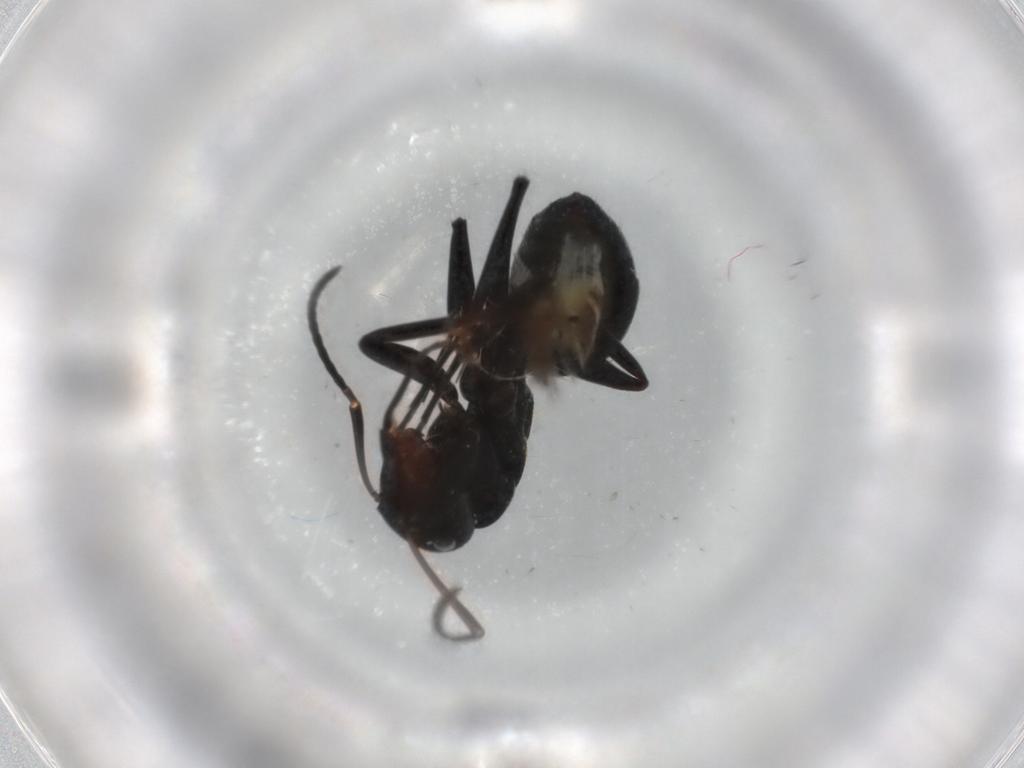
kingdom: Animalia
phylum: Arthropoda
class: Insecta
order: Hymenoptera
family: Formicidae
